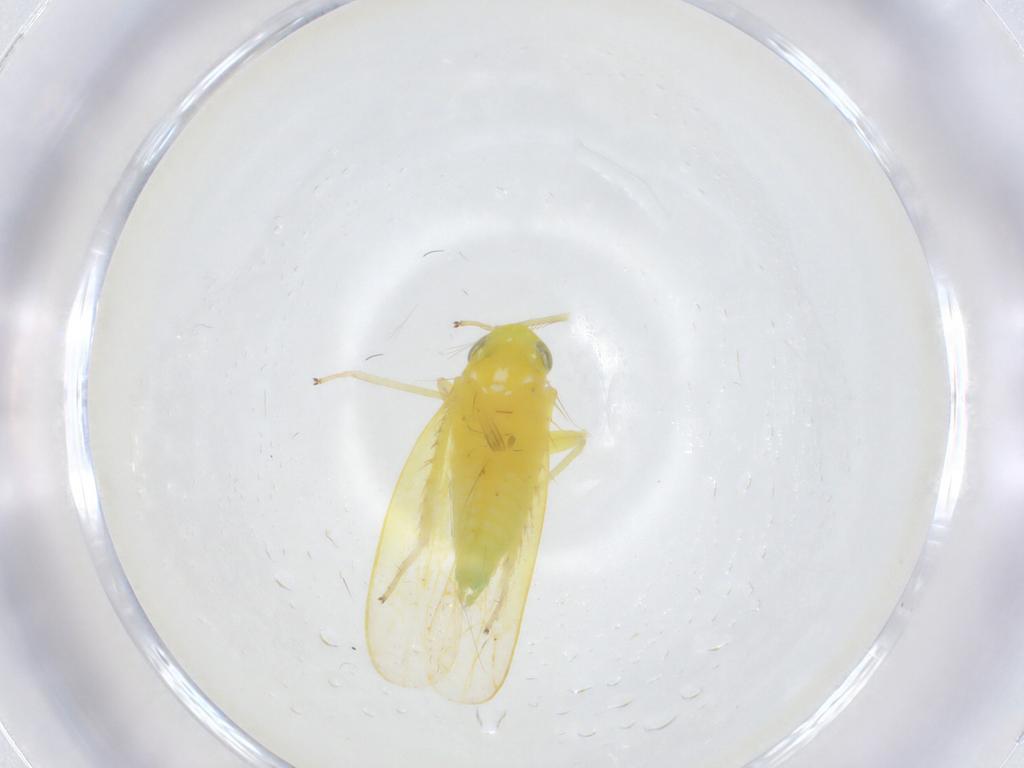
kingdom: Animalia
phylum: Arthropoda
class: Insecta
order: Hemiptera
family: Cicadellidae
